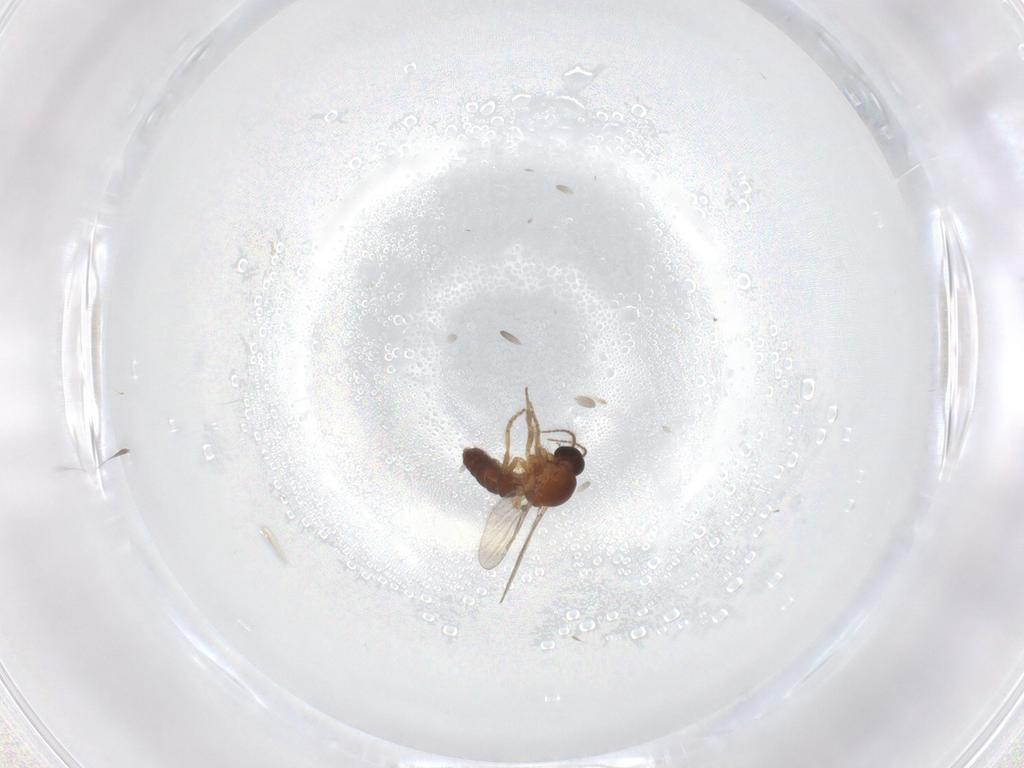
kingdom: Animalia
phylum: Arthropoda
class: Insecta
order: Diptera
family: Ceratopogonidae
